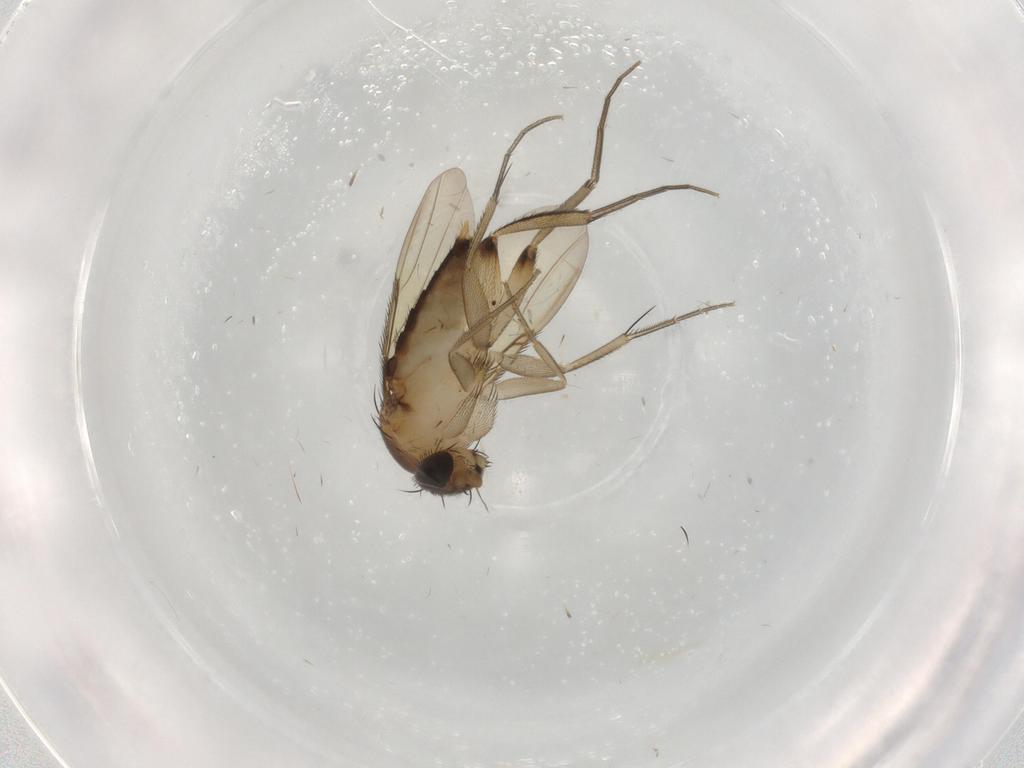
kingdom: Animalia
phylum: Arthropoda
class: Insecta
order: Diptera
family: Phoridae
